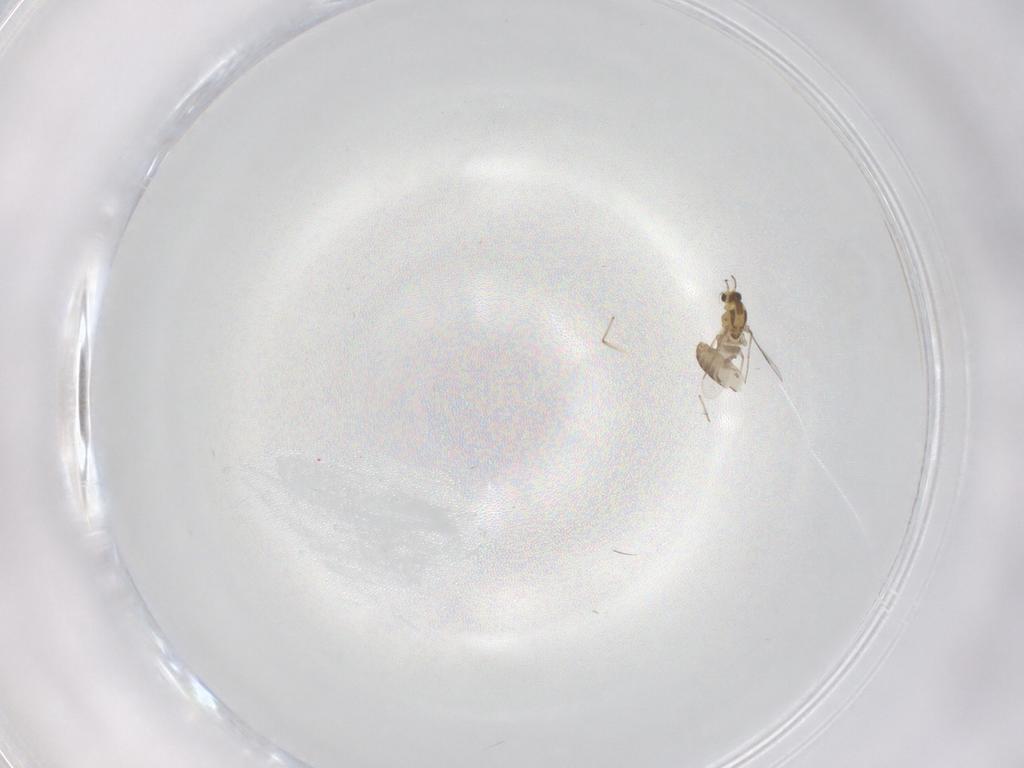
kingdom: Animalia
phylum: Arthropoda
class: Insecta
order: Diptera
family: Chironomidae
